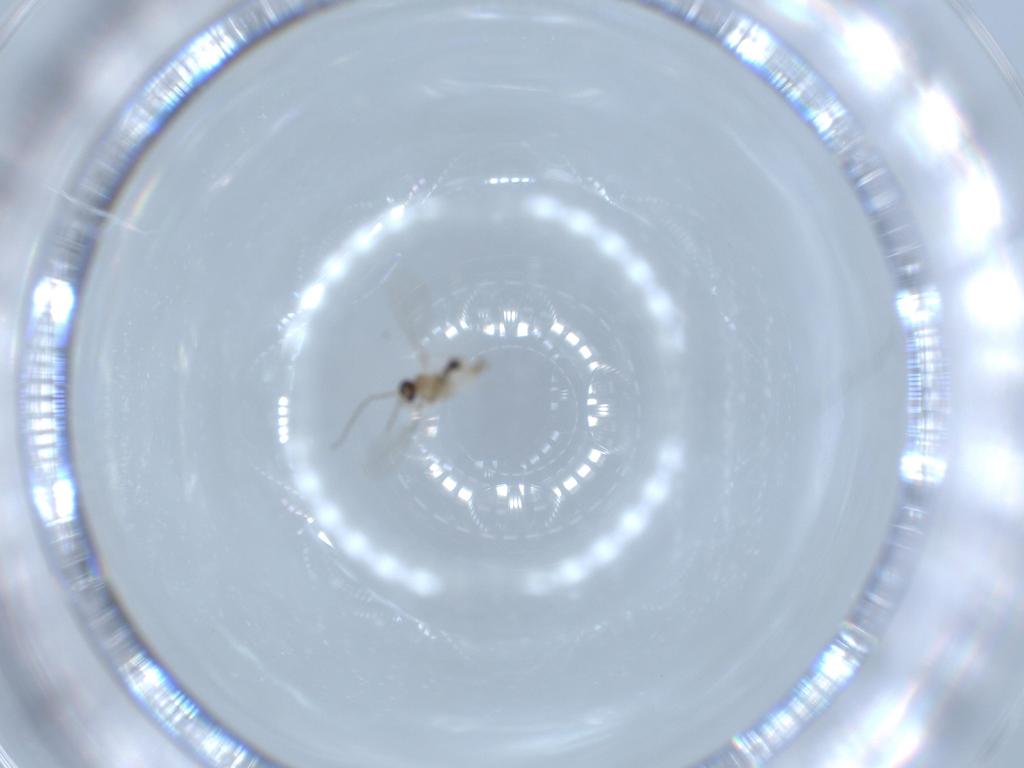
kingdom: Animalia
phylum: Arthropoda
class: Insecta
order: Diptera
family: Cecidomyiidae
